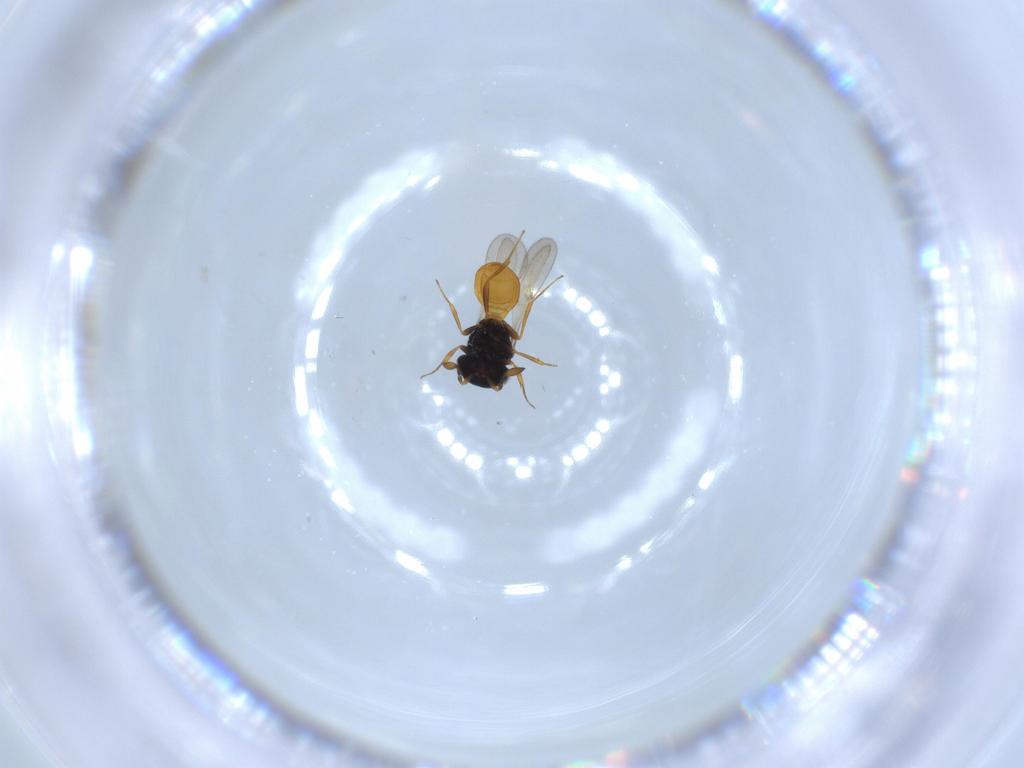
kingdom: Animalia
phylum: Arthropoda
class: Insecta
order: Hymenoptera
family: Scelionidae
